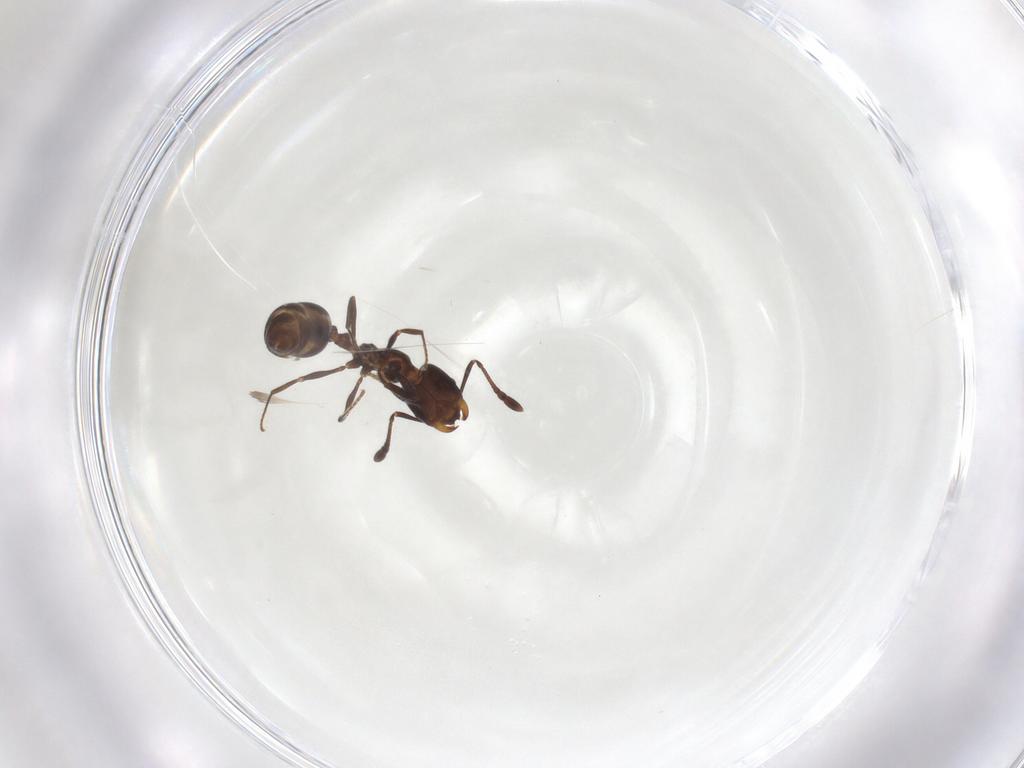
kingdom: Animalia
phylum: Arthropoda
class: Insecta
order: Hymenoptera
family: Formicidae
